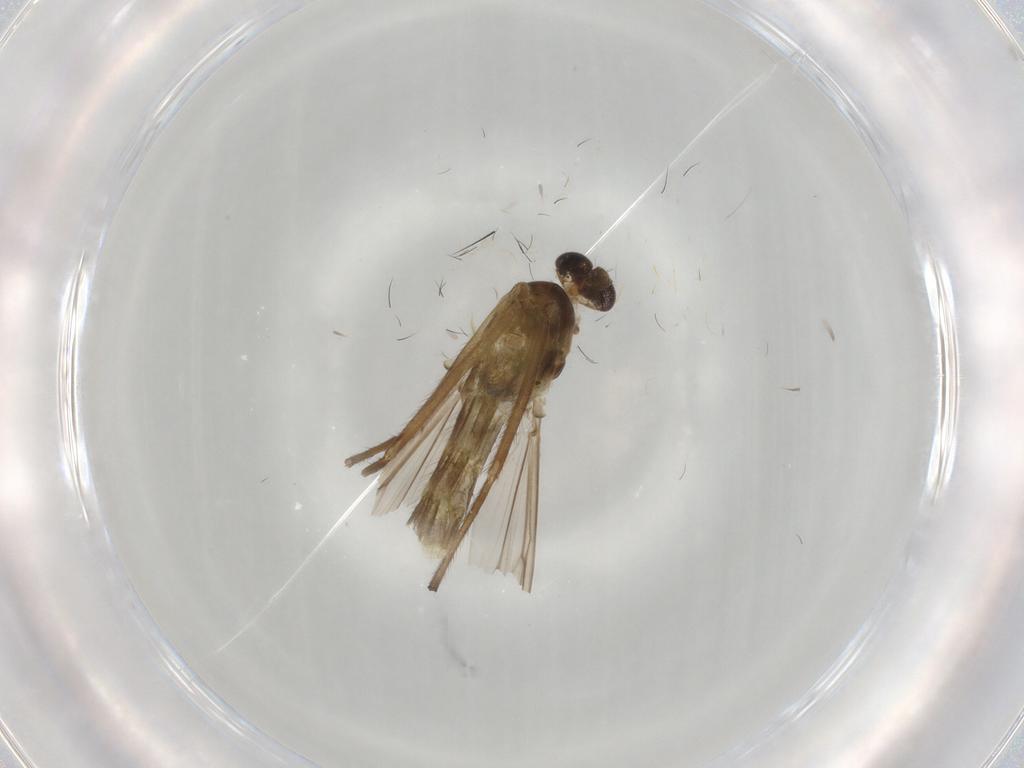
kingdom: Animalia
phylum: Arthropoda
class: Insecta
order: Diptera
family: Chironomidae
